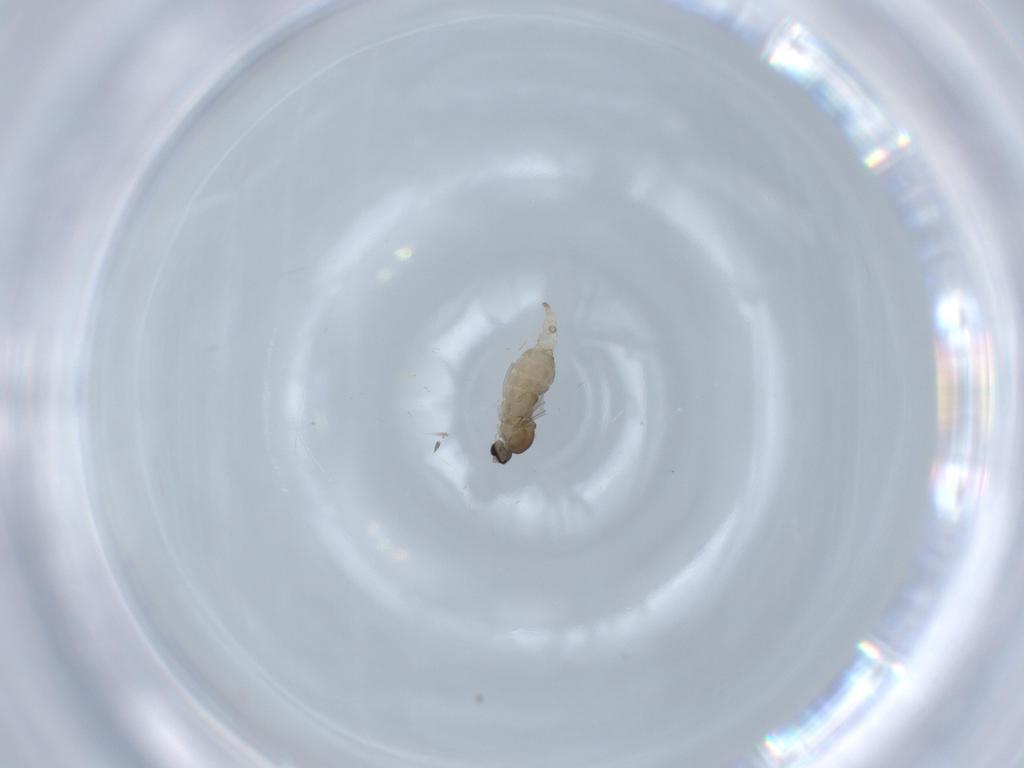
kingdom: Animalia
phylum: Arthropoda
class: Insecta
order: Diptera
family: Cecidomyiidae
